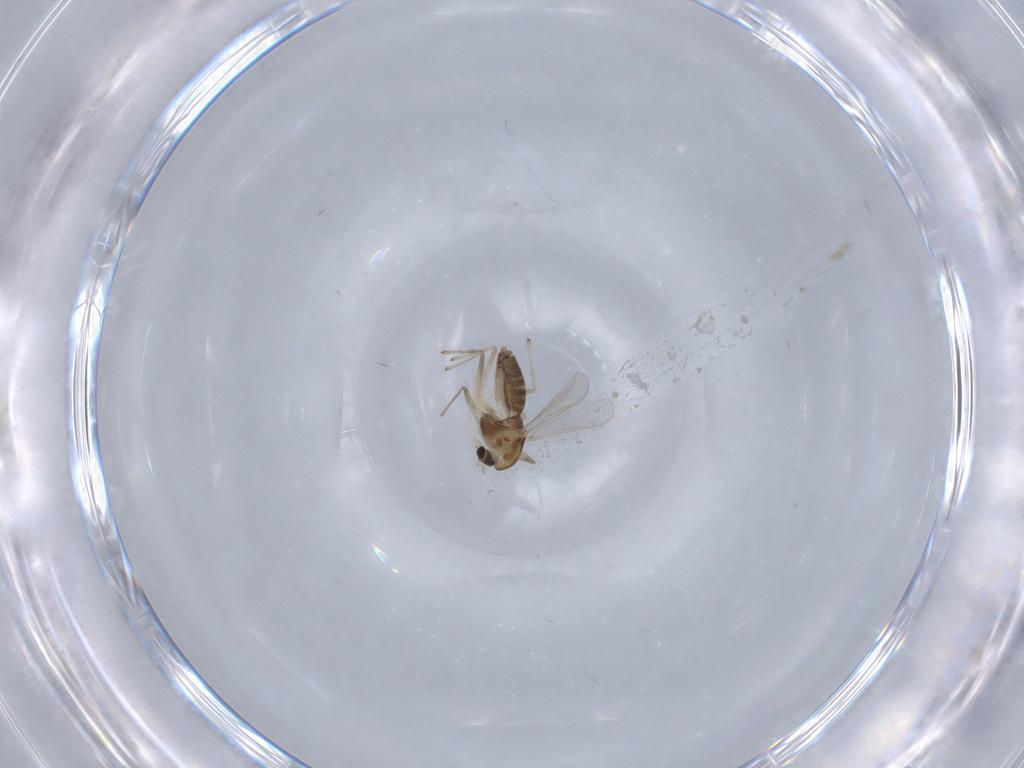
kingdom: Animalia
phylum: Arthropoda
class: Insecta
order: Diptera
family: Chironomidae
